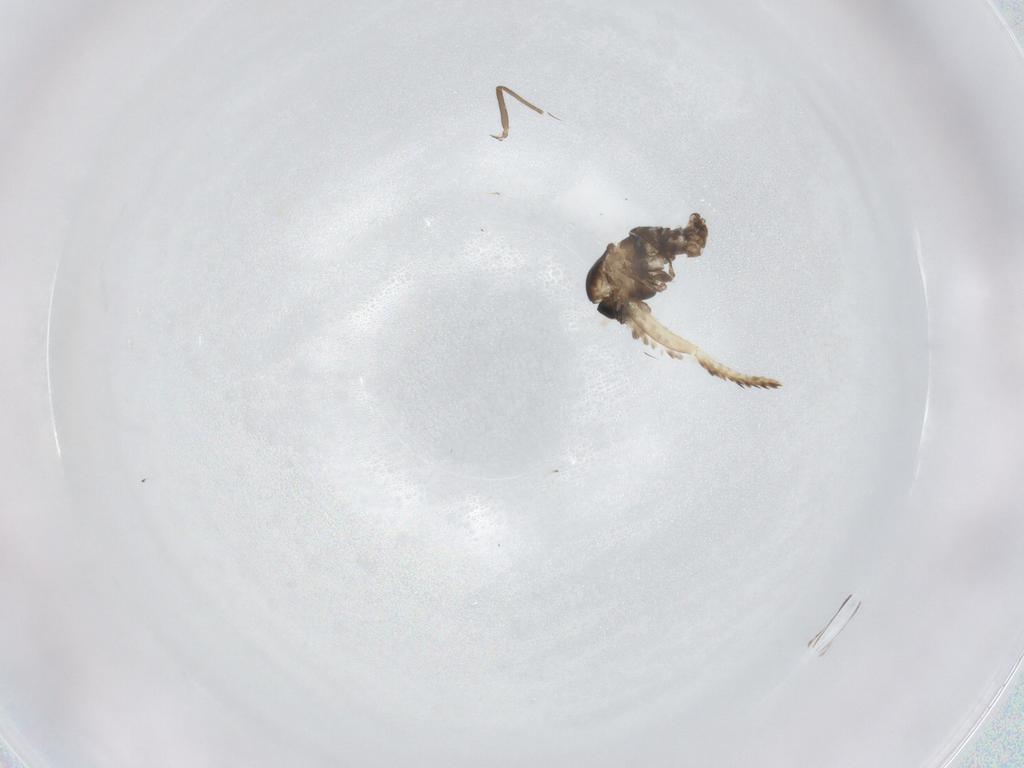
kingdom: Animalia
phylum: Arthropoda
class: Insecta
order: Diptera
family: Chironomidae
